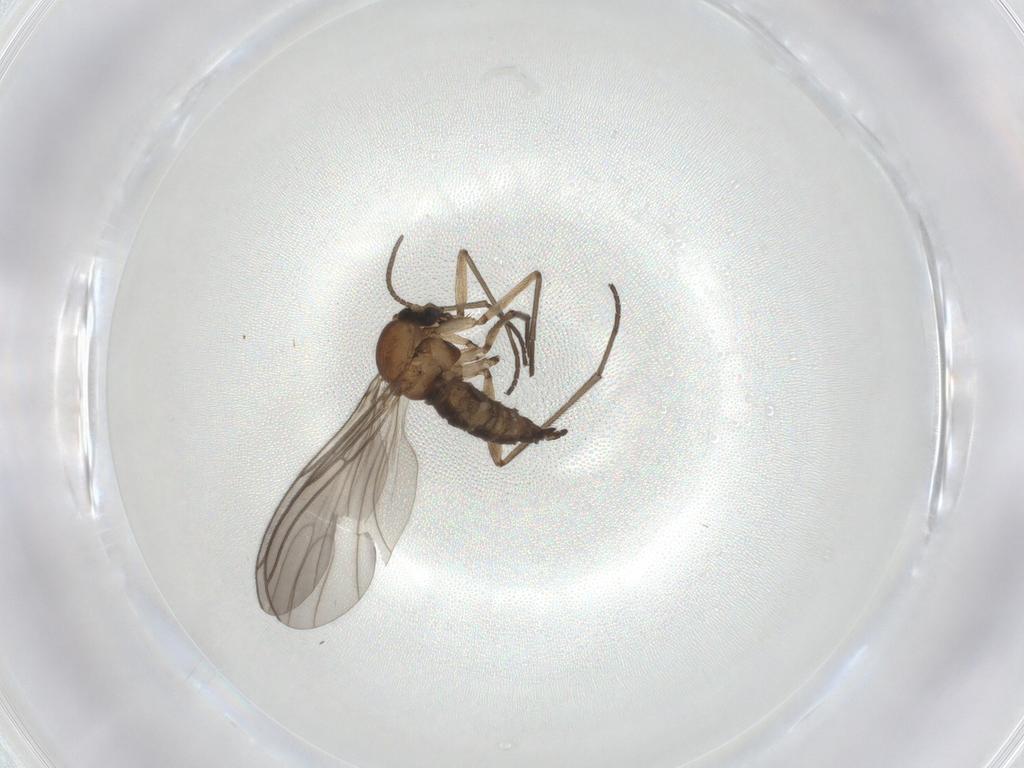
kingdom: Animalia
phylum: Arthropoda
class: Insecta
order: Diptera
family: Sciaridae
